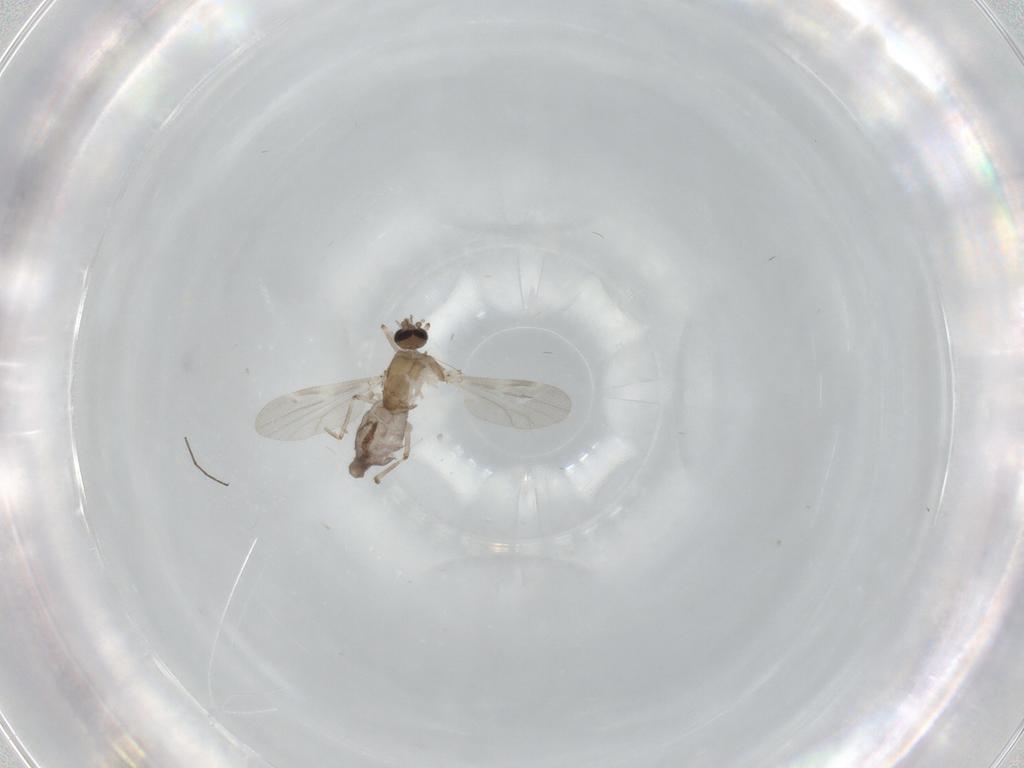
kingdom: Animalia
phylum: Arthropoda
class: Insecta
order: Diptera
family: Ceratopogonidae
